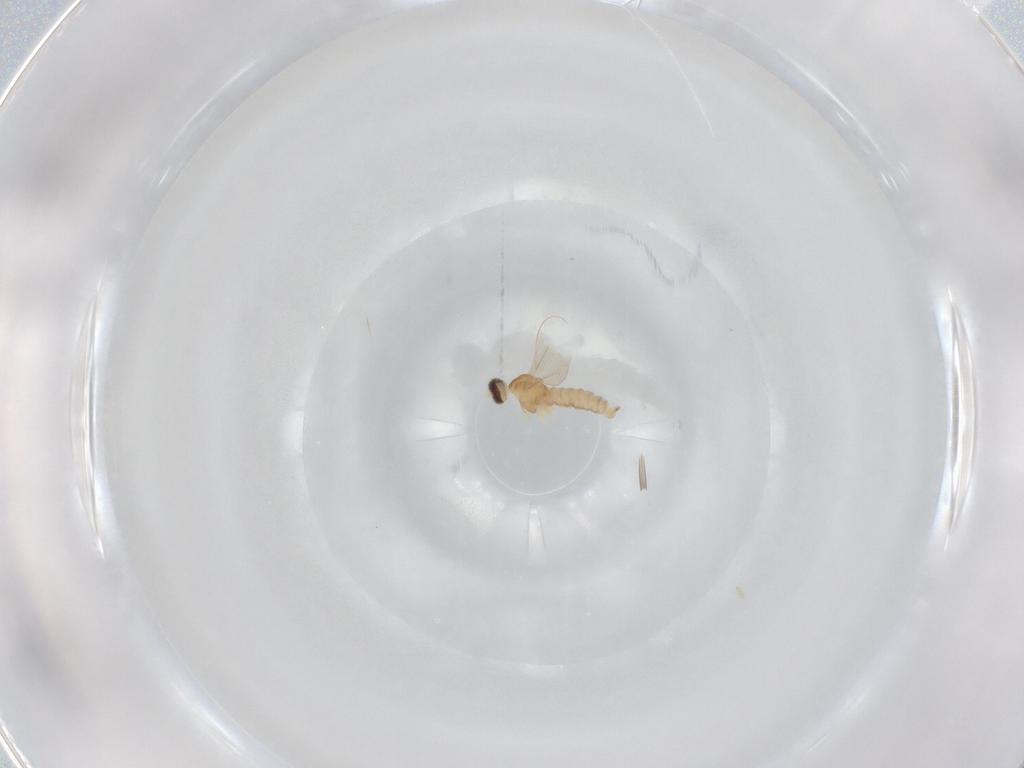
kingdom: Animalia
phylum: Arthropoda
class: Insecta
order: Diptera
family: Cecidomyiidae
